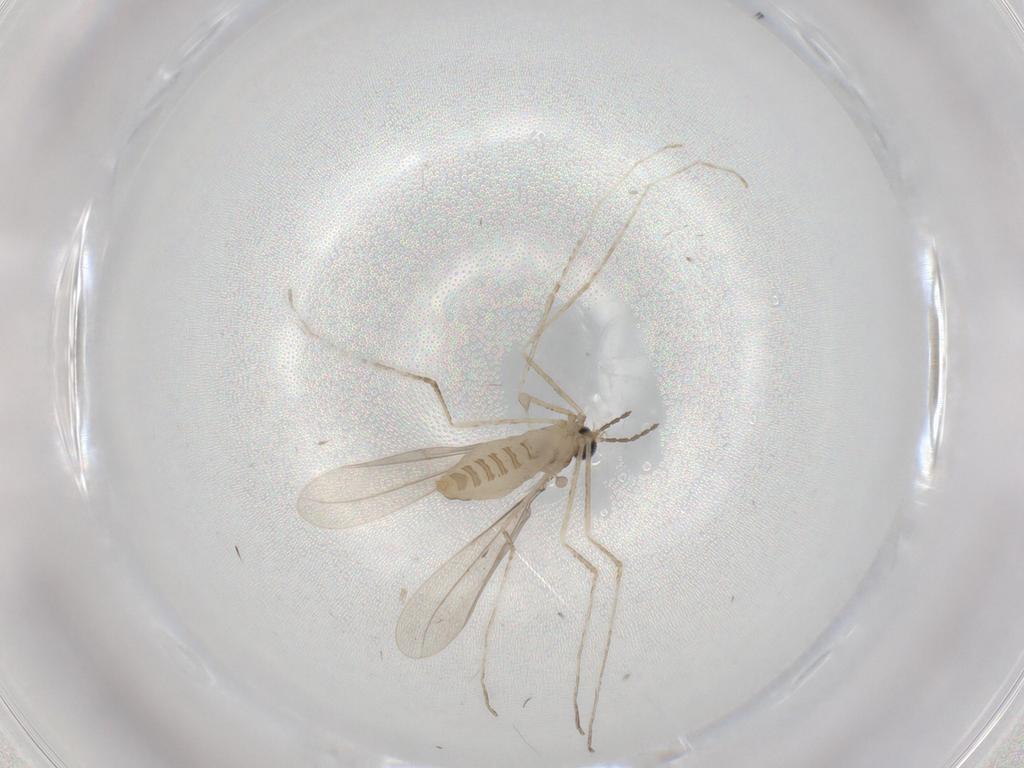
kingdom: Animalia
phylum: Arthropoda
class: Insecta
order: Diptera
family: Cecidomyiidae
